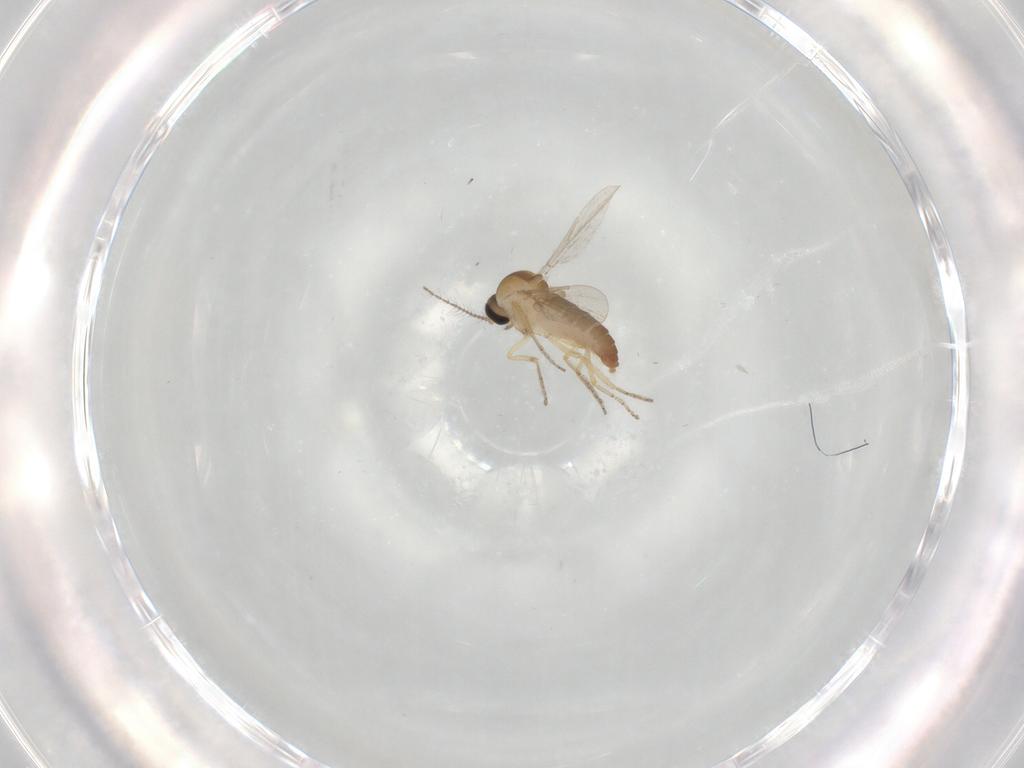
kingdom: Animalia
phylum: Arthropoda
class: Insecta
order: Diptera
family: Ceratopogonidae
